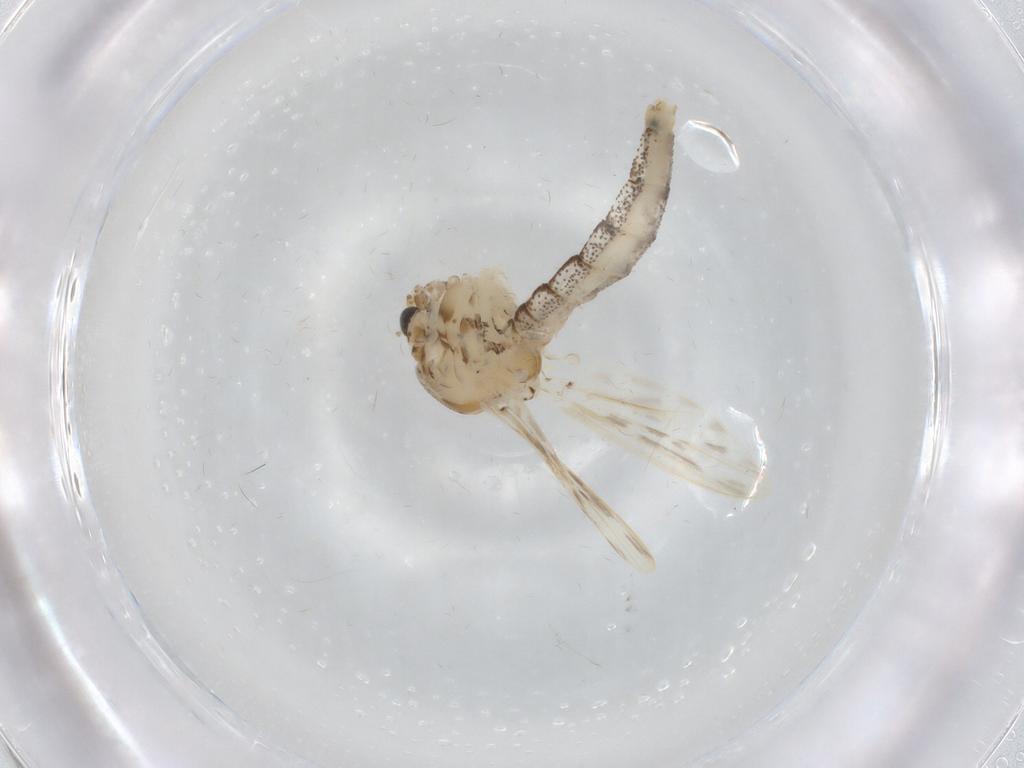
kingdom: Animalia
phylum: Arthropoda
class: Insecta
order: Diptera
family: Chaoboridae
